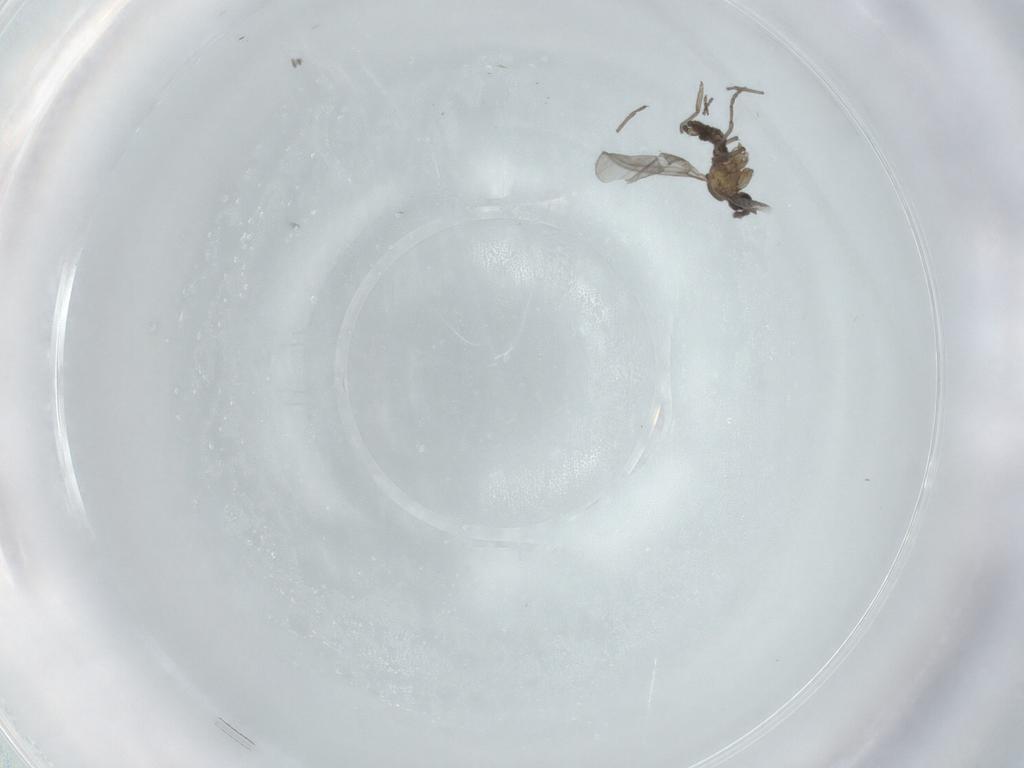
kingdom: Animalia
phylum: Arthropoda
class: Insecta
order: Diptera
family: Sciaridae
